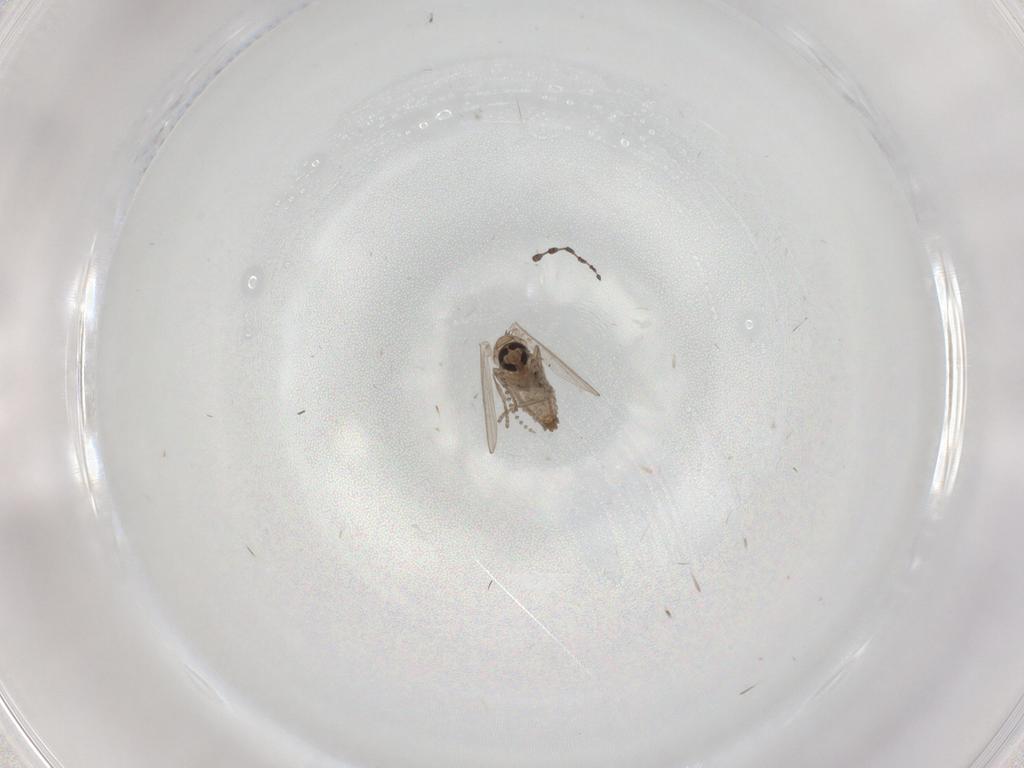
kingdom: Animalia
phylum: Arthropoda
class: Insecta
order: Diptera
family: Psychodidae
